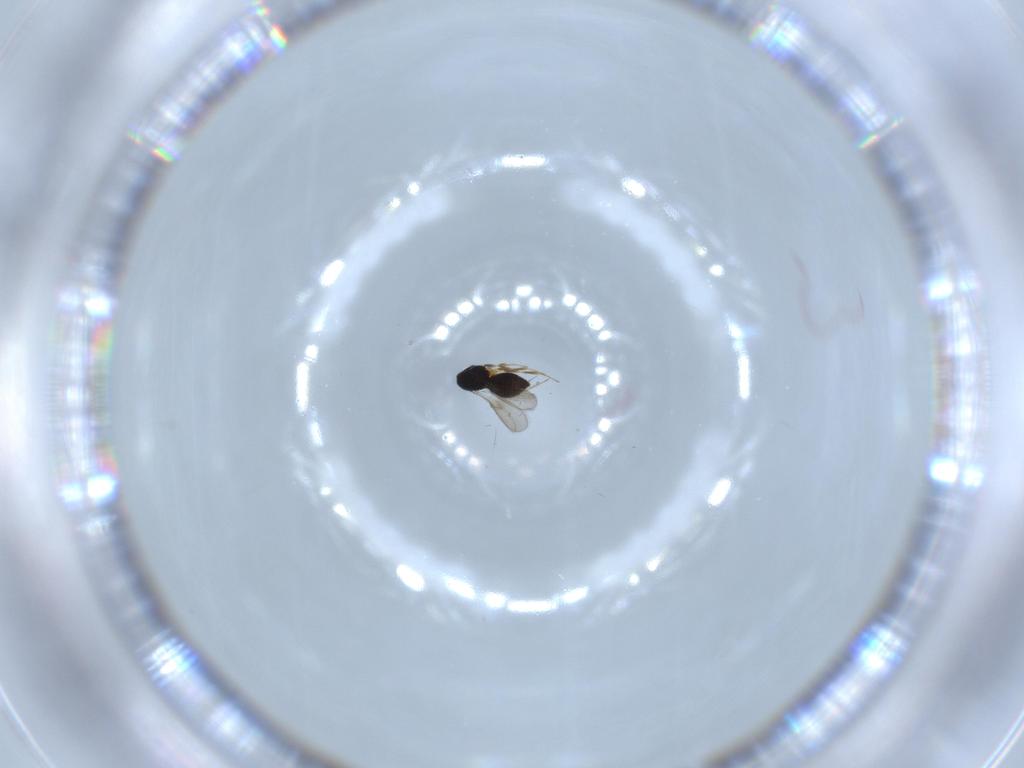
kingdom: Animalia
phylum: Arthropoda
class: Insecta
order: Hymenoptera
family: Scelionidae
